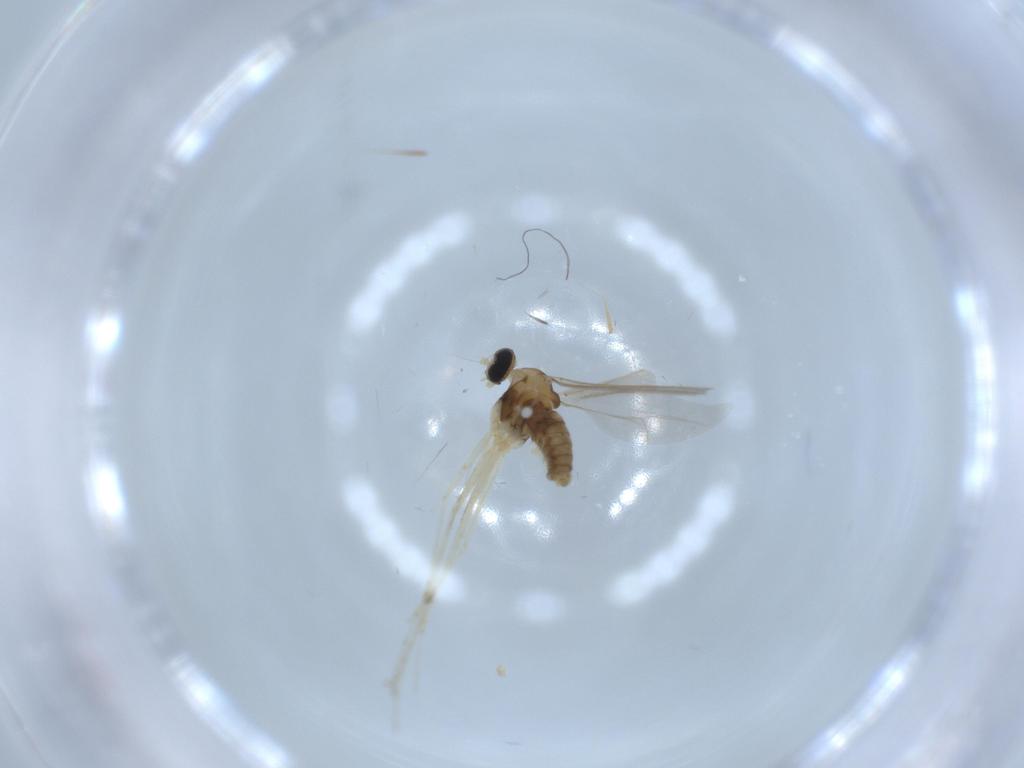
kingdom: Animalia
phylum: Arthropoda
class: Insecta
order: Diptera
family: Cecidomyiidae
